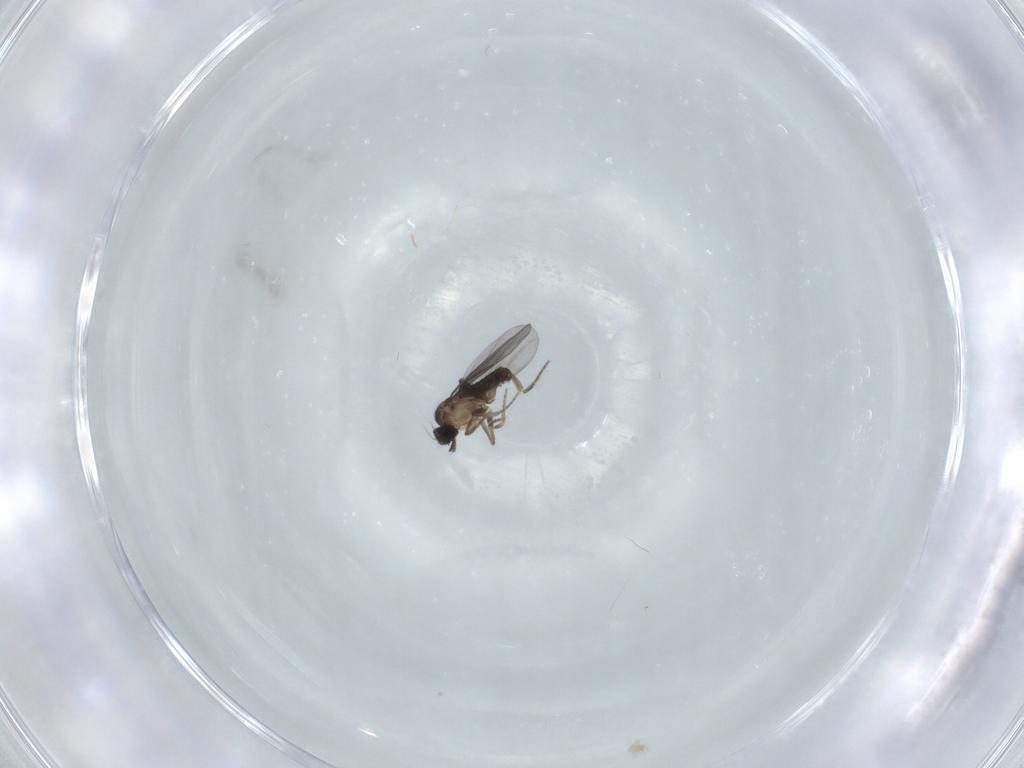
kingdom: Animalia
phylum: Arthropoda
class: Insecta
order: Diptera
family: Phoridae
